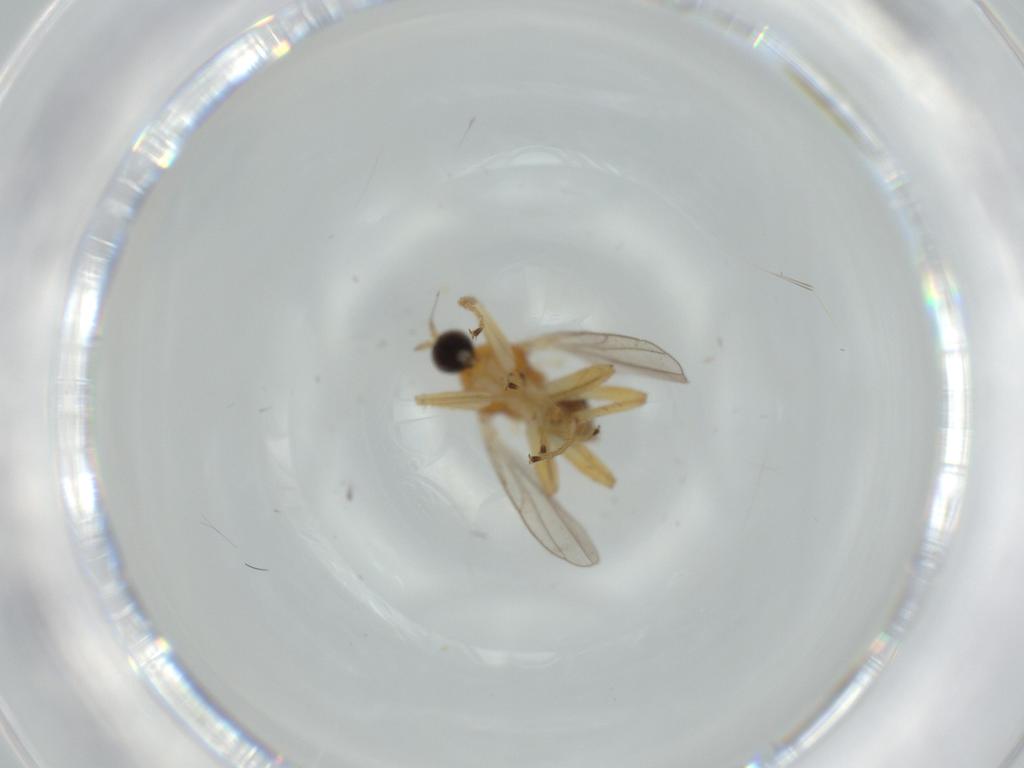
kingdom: Animalia
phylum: Arthropoda
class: Insecta
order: Diptera
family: Hybotidae
